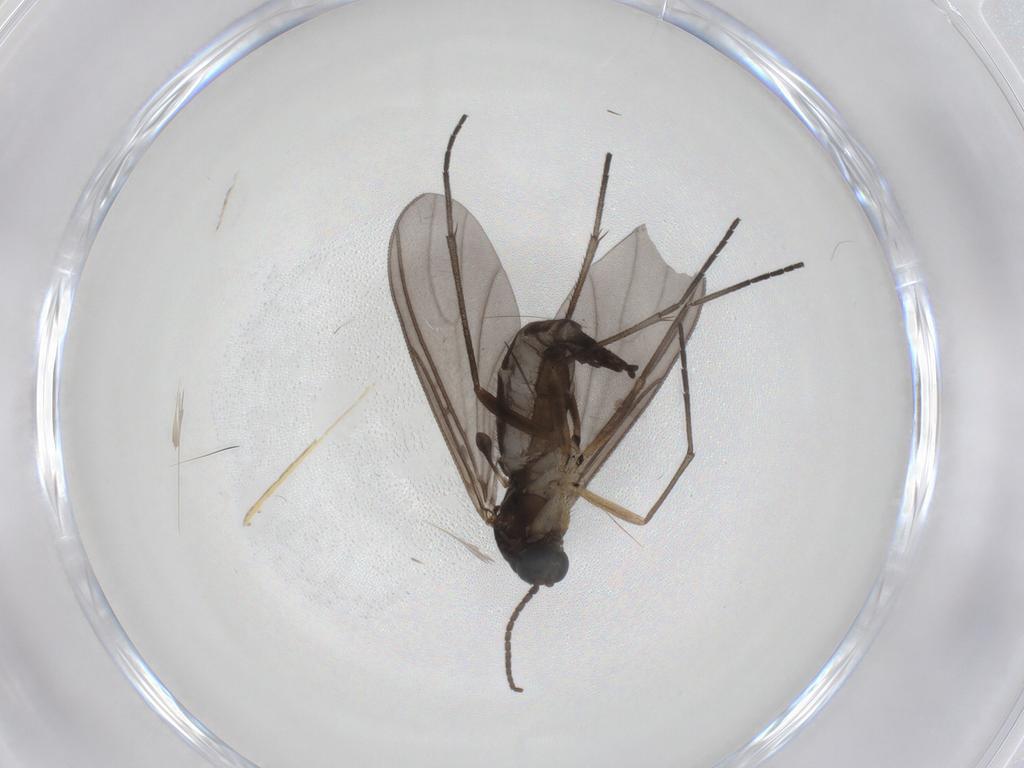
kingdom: Animalia
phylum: Arthropoda
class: Insecta
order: Diptera
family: Sciaridae
